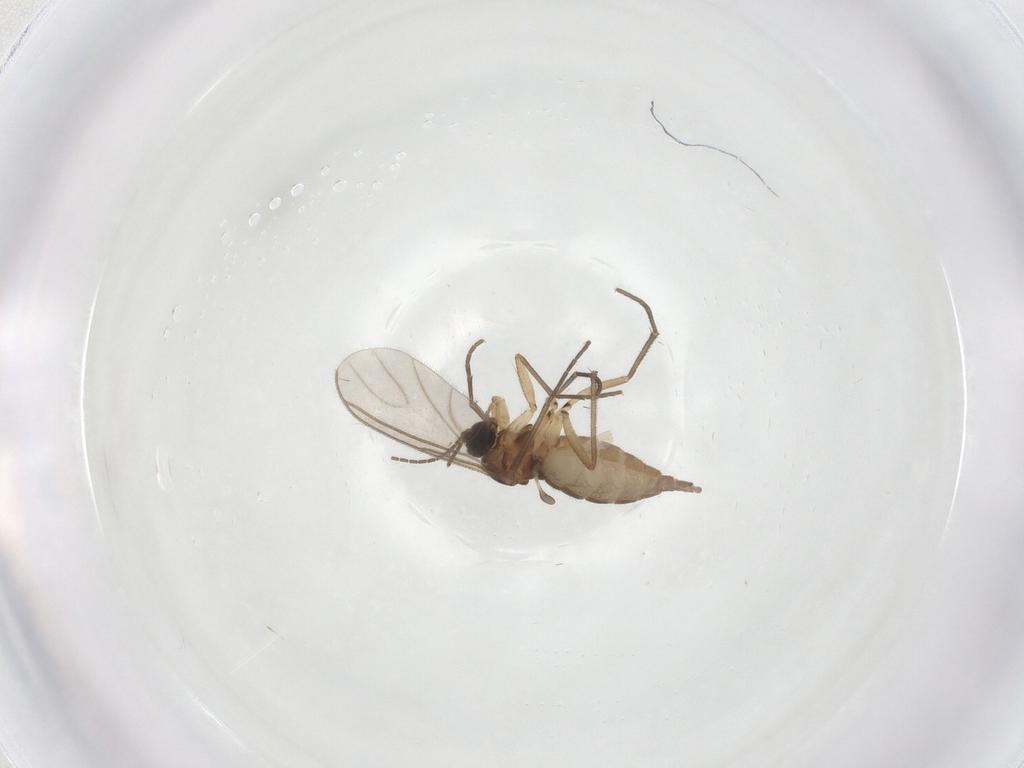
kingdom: Animalia
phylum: Arthropoda
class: Insecta
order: Diptera
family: Sciaridae
